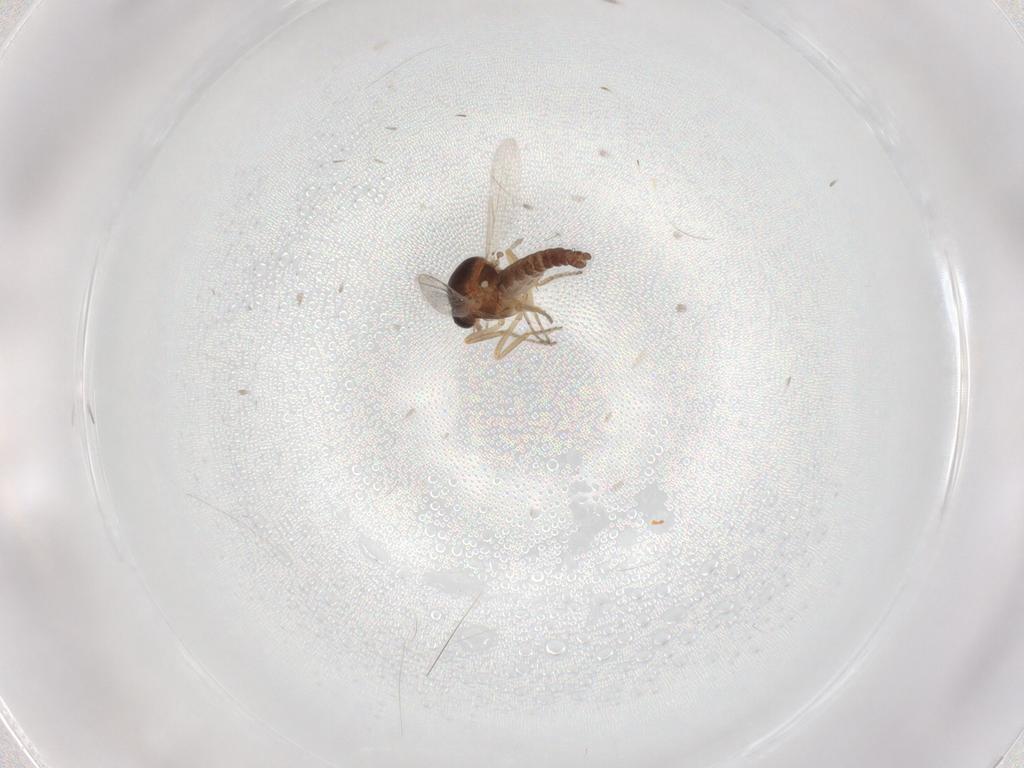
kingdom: Animalia
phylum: Arthropoda
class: Insecta
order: Diptera
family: Ceratopogonidae
